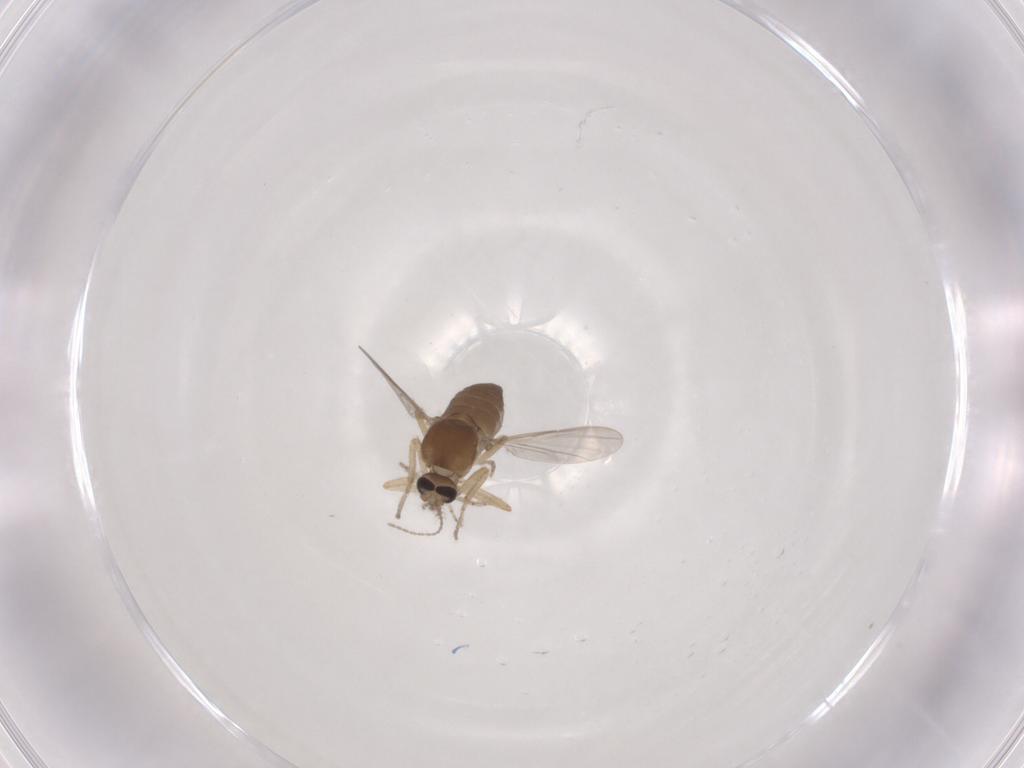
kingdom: Animalia
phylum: Arthropoda
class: Insecta
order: Diptera
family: Ceratopogonidae
